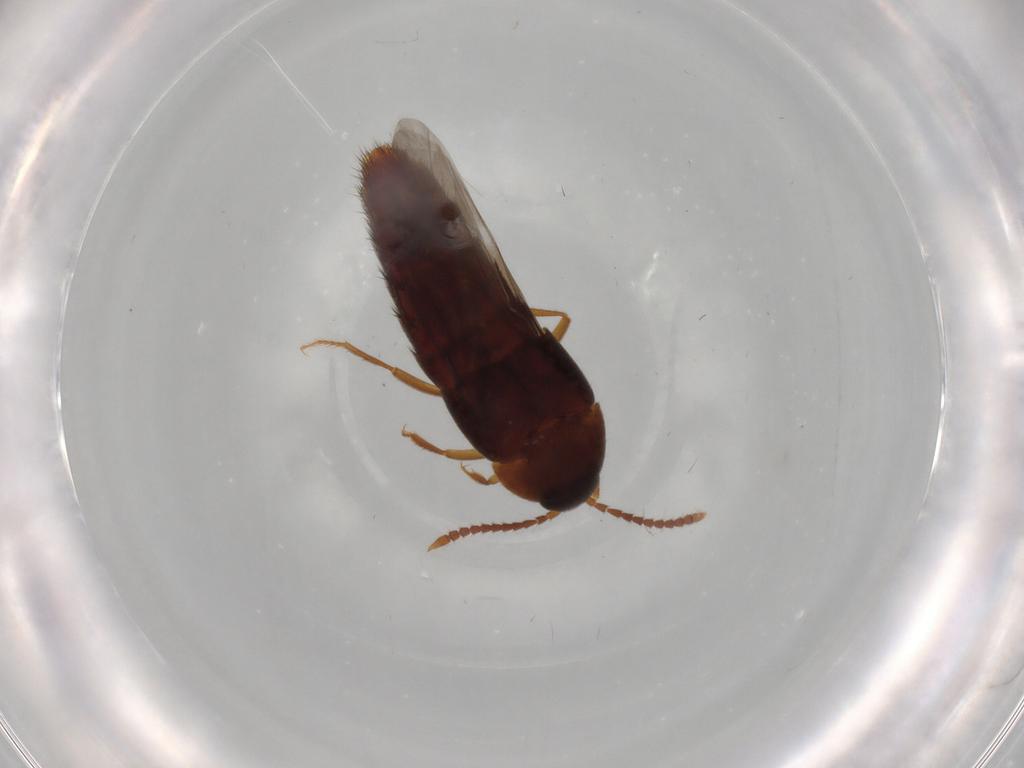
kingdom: Animalia
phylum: Arthropoda
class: Insecta
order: Coleoptera
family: Staphylinidae
